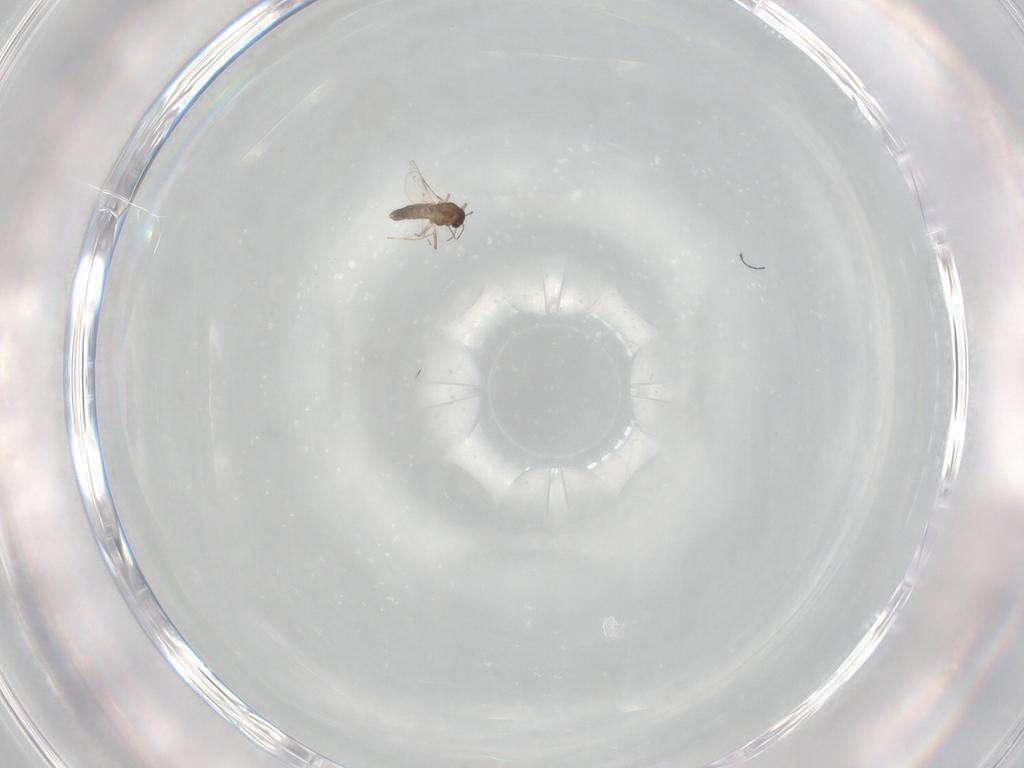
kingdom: Animalia
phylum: Arthropoda
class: Insecta
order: Diptera
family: Chironomidae
